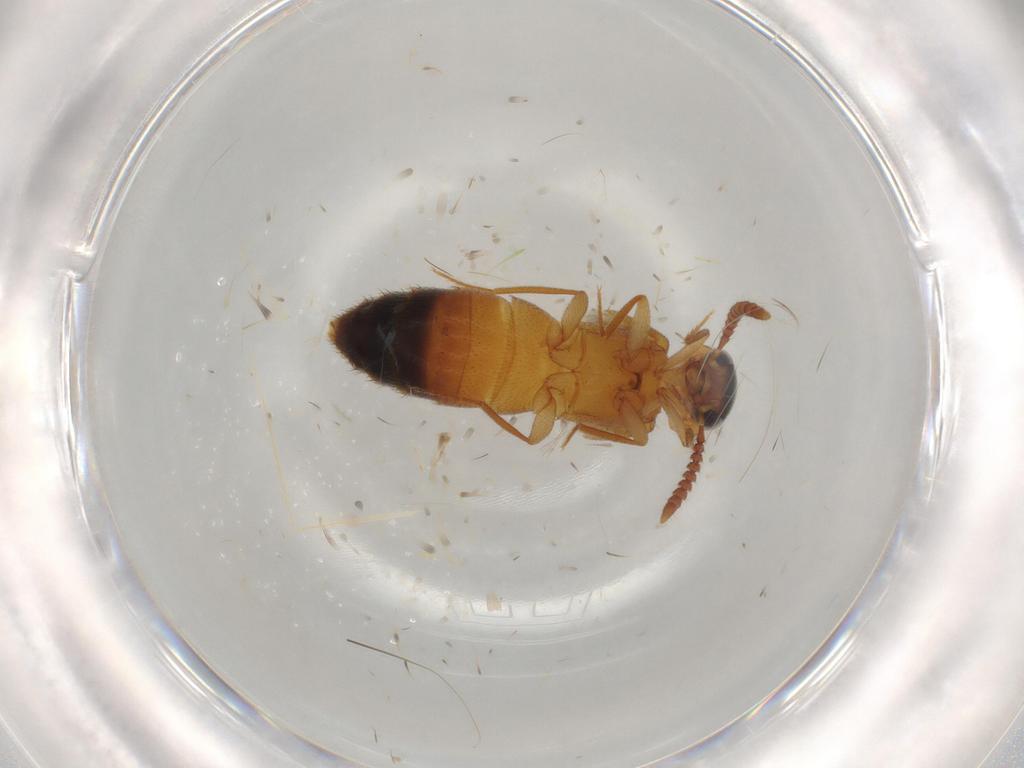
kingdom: Animalia
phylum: Arthropoda
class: Insecta
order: Coleoptera
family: Staphylinidae
